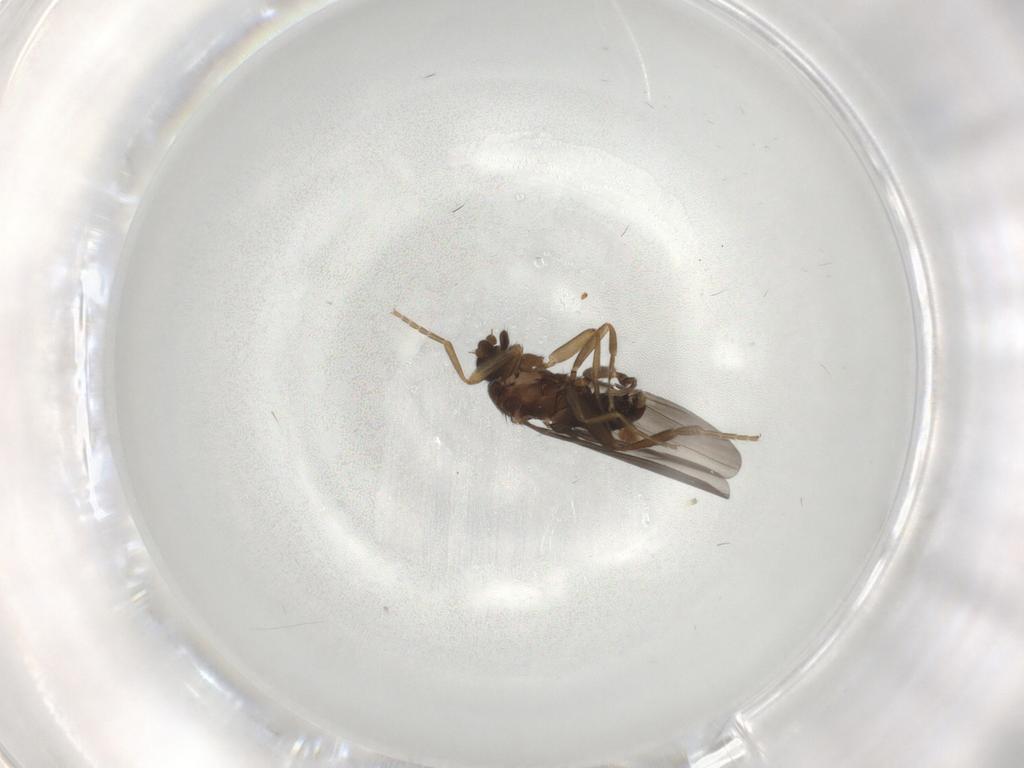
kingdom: Animalia
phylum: Arthropoda
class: Insecta
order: Diptera
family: Phoridae
